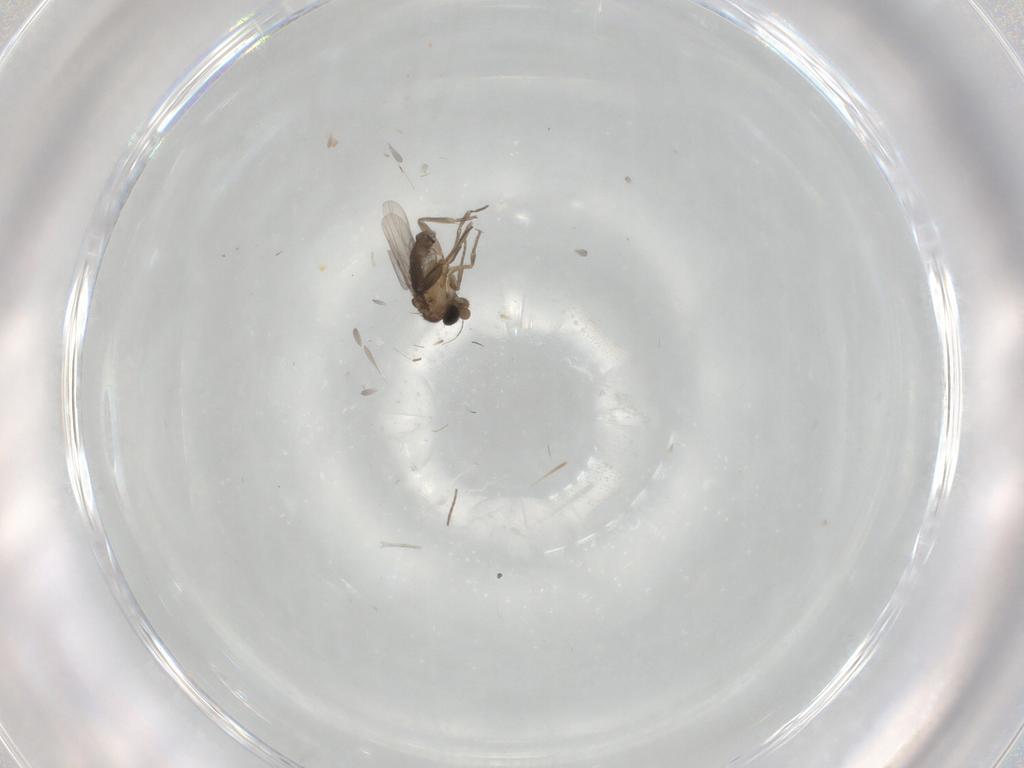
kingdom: Animalia
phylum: Arthropoda
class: Insecta
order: Diptera
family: Cecidomyiidae
